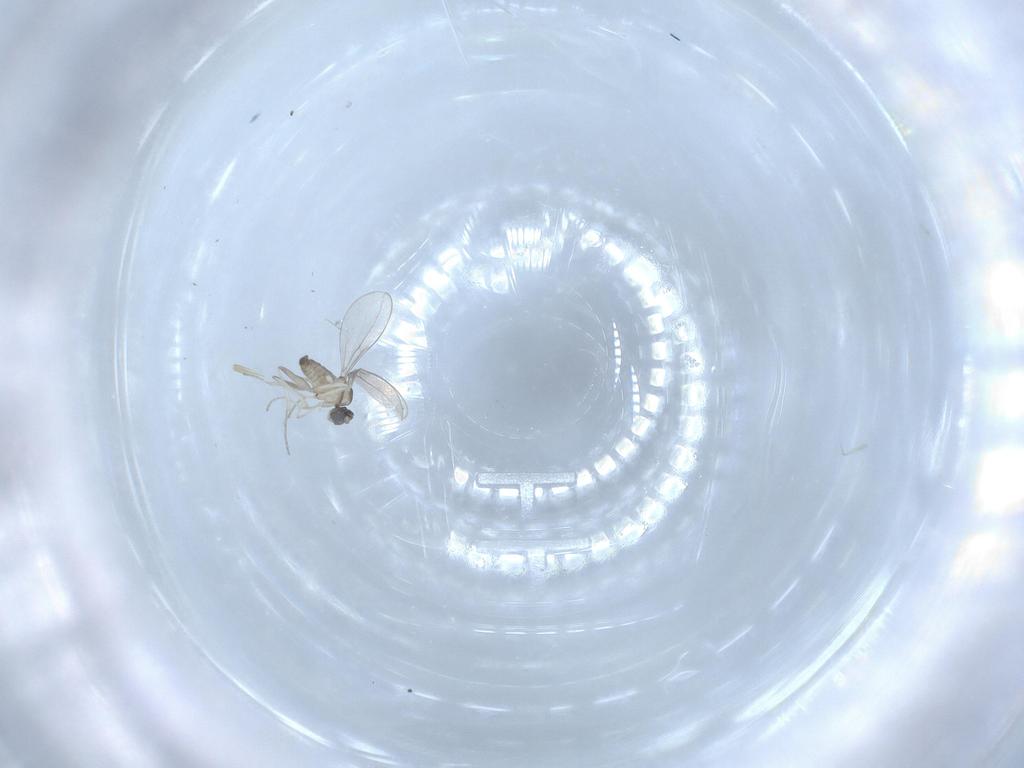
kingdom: Animalia
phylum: Arthropoda
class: Insecta
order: Diptera
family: Cecidomyiidae
